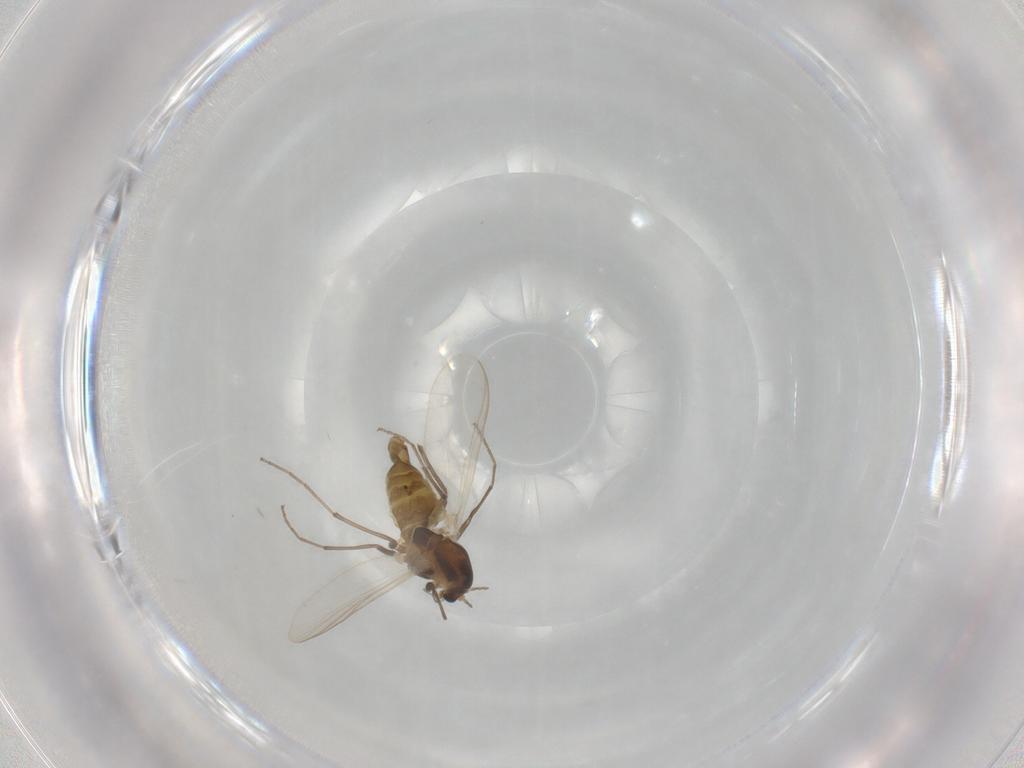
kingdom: Animalia
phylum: Arthropoda
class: Insecta
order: Diptera
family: Chironomidae
